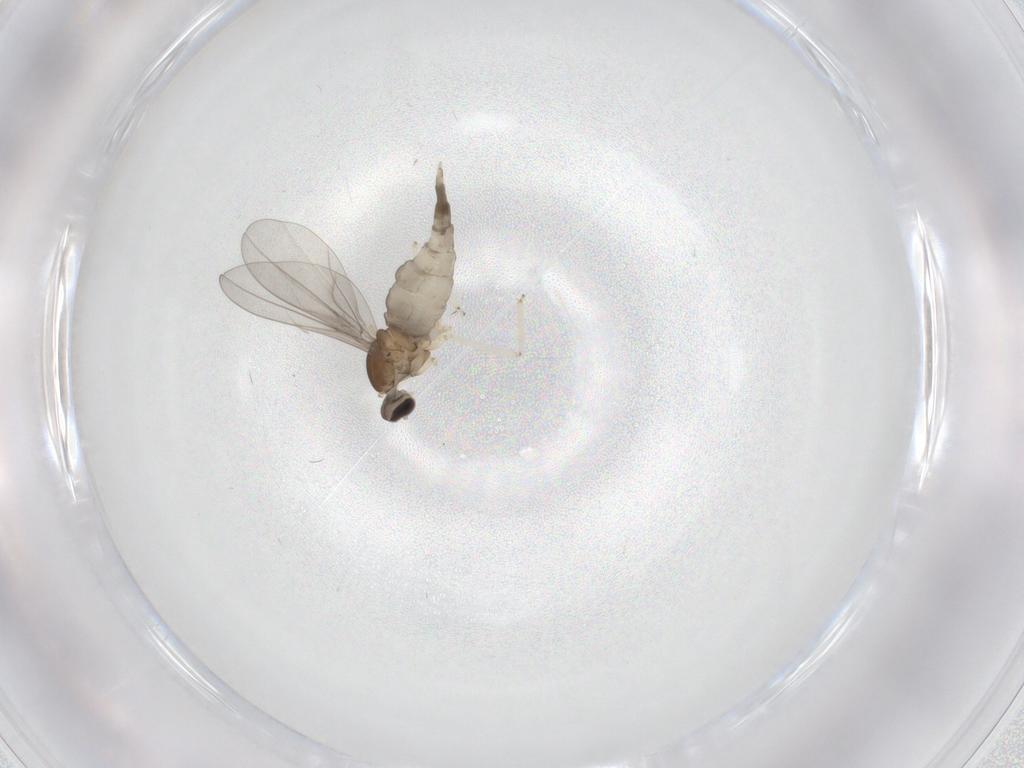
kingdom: Animalia
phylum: Arthropoda
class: Insecta
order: Diptera
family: Cecidomyiidae
